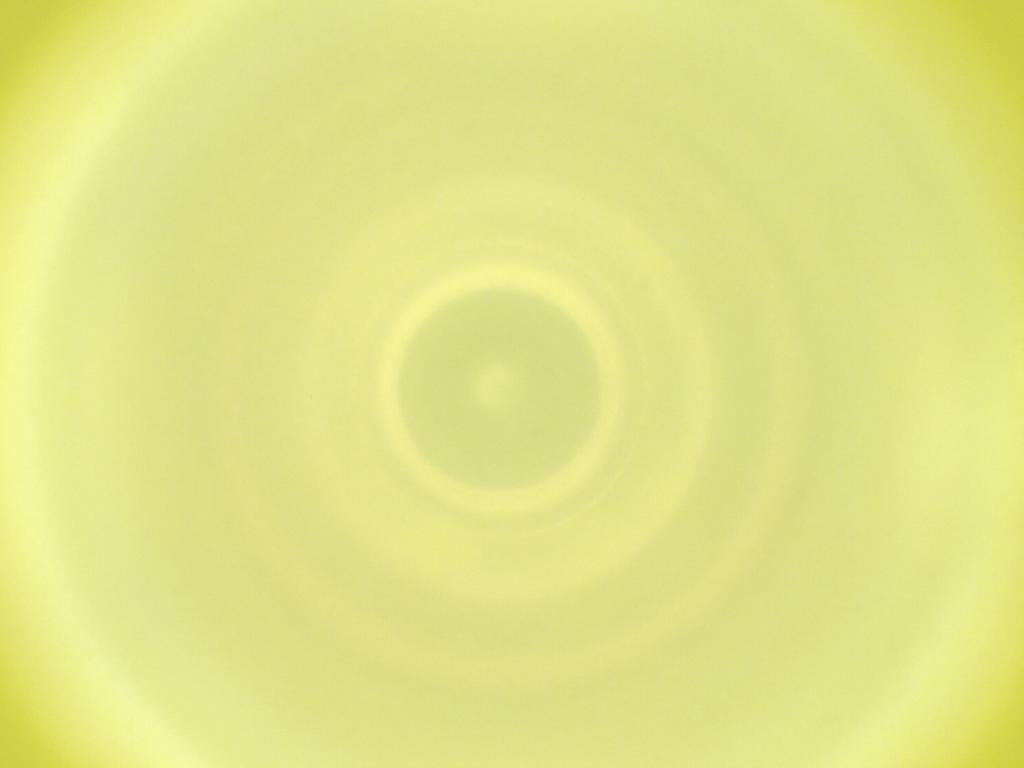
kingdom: Animalia
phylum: Arthropoda
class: Insecta
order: Diptera
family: Cecidomyiidae
